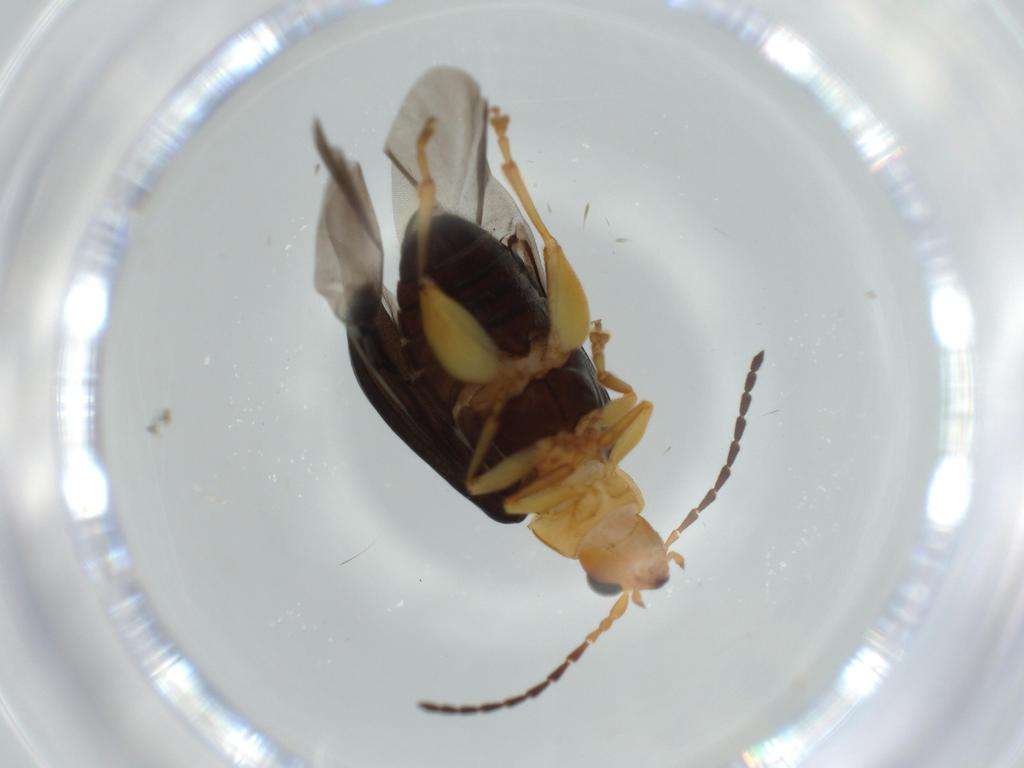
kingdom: Animalia
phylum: Arthropoda
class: Insecta
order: Coleoptera
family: Chrysomelidae
